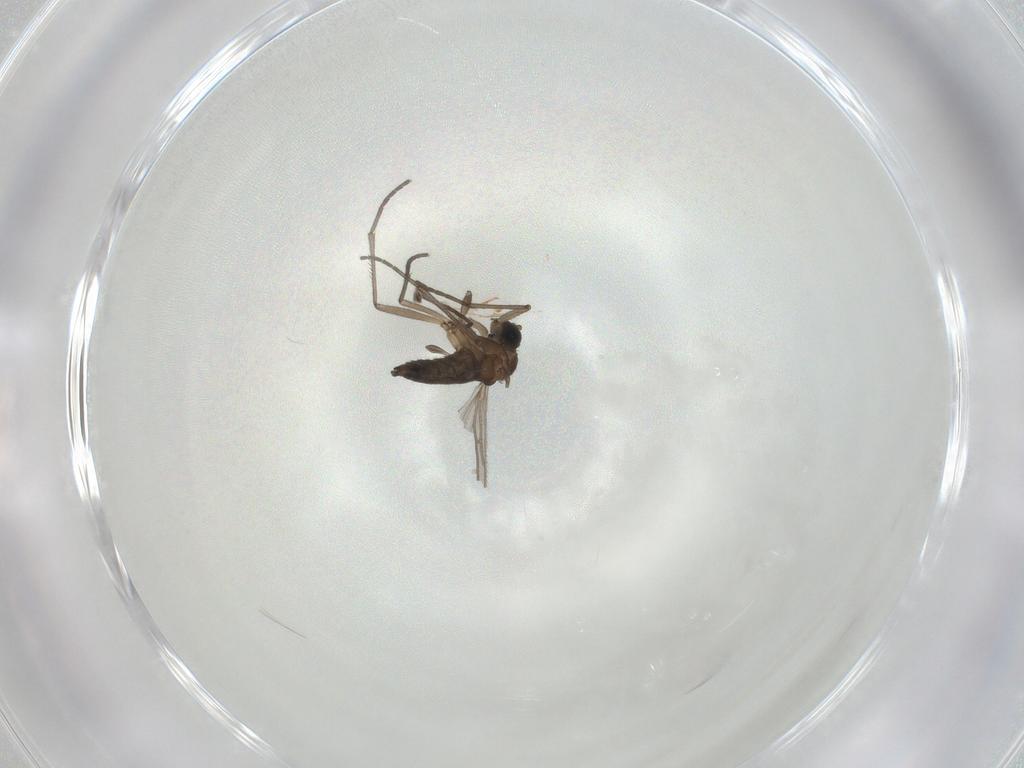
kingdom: Animalia
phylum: Arthropoda
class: Insecta
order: Diptera
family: Sciaridae
